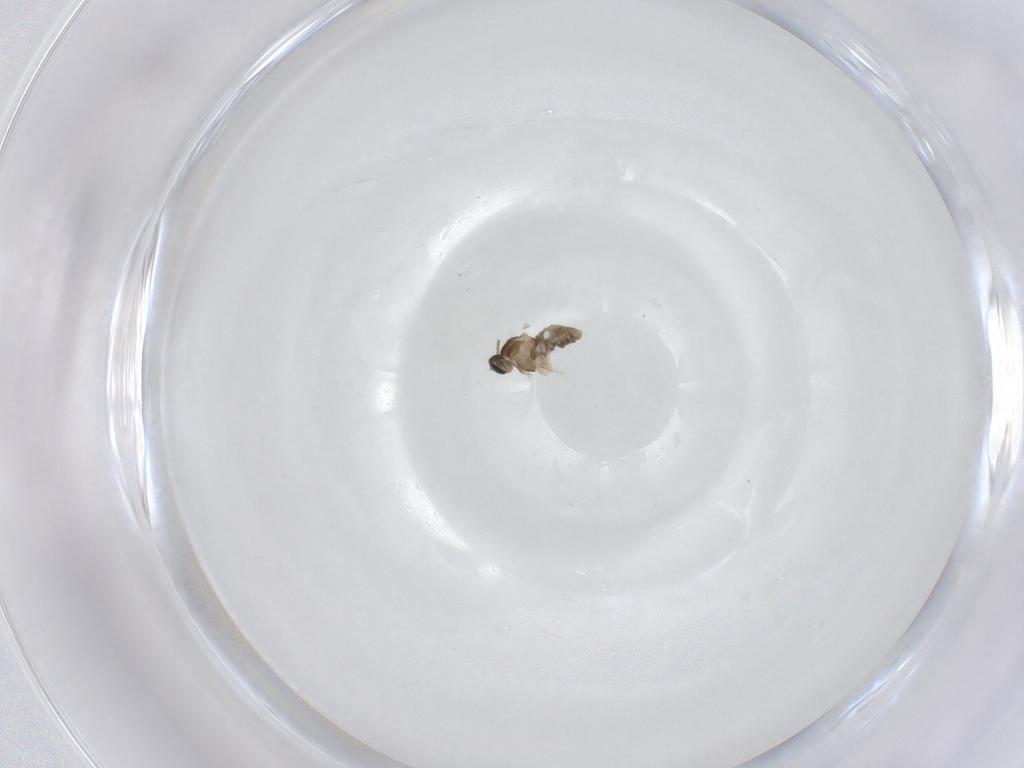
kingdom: Animalia
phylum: Arthropoda
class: Insecta
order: Diptera
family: Cecidomyiidae
